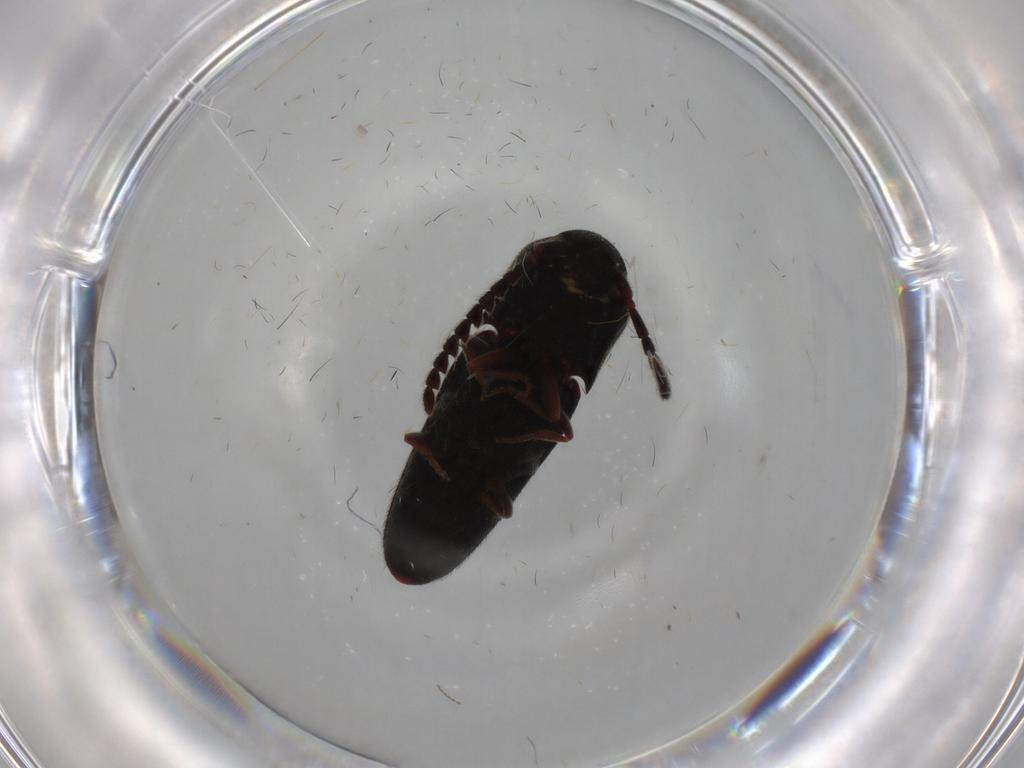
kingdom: Animalia
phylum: Arthropoda
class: Insecta
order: Coleoptera
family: Eucnemidae
